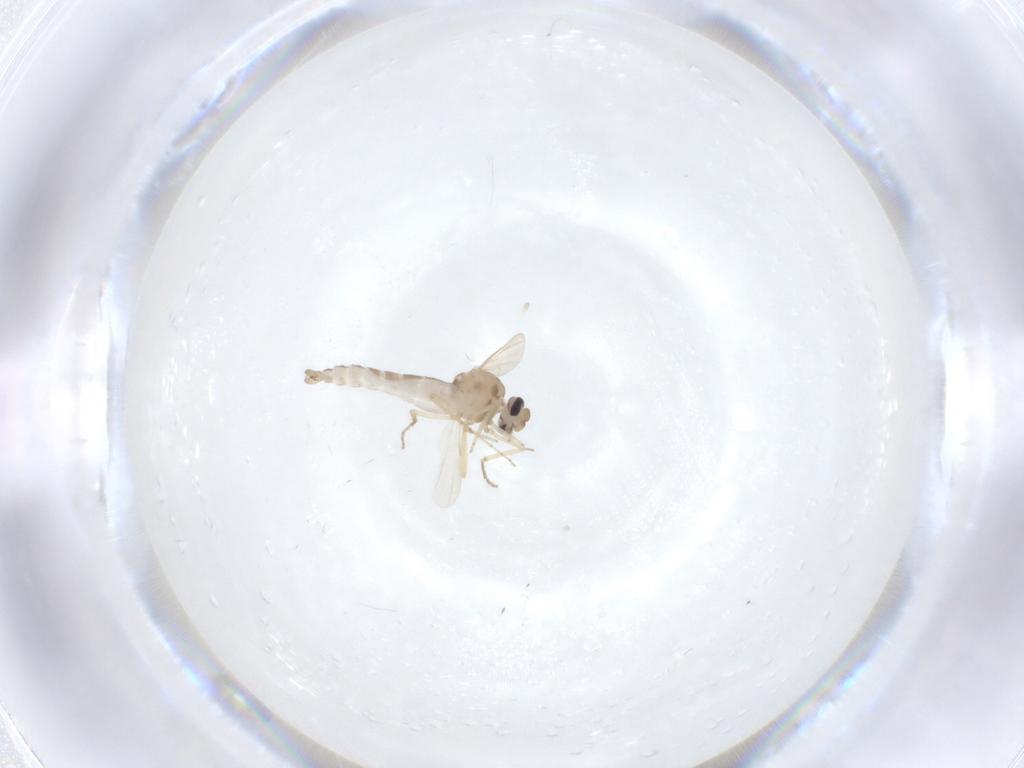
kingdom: Animalia
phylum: Arthropoda
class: Insecta
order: Diptera
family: Ceratopogonidae
